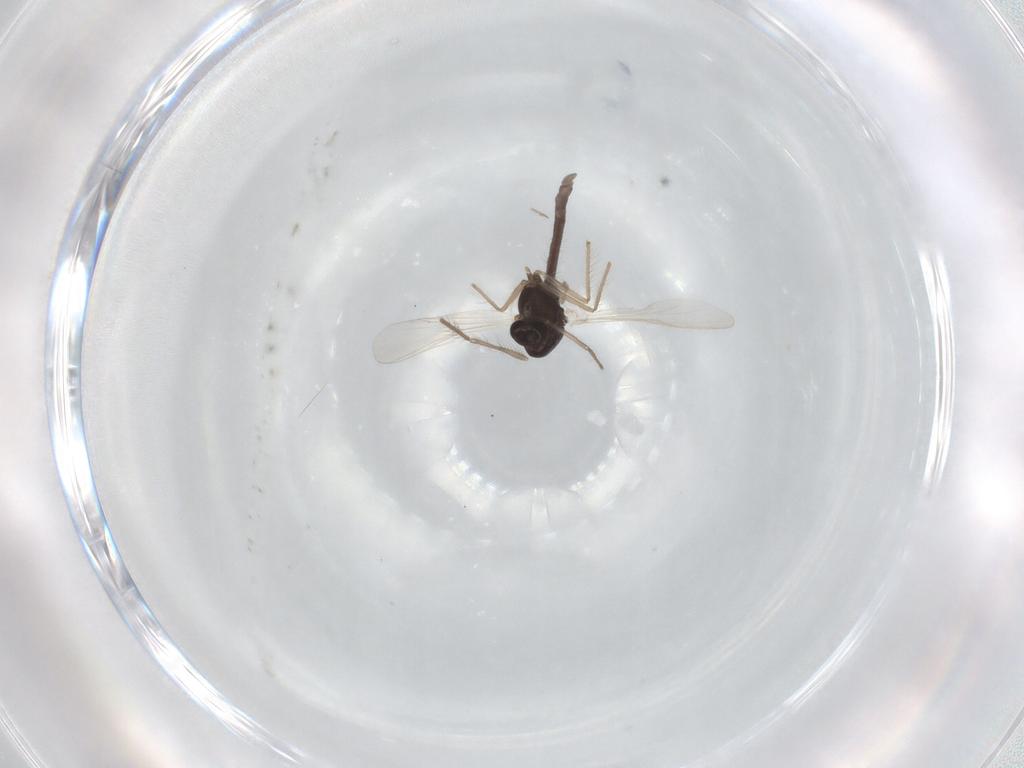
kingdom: Animalia
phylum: Arthropoda
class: Insecta
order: Diptera
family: Chironomidae
